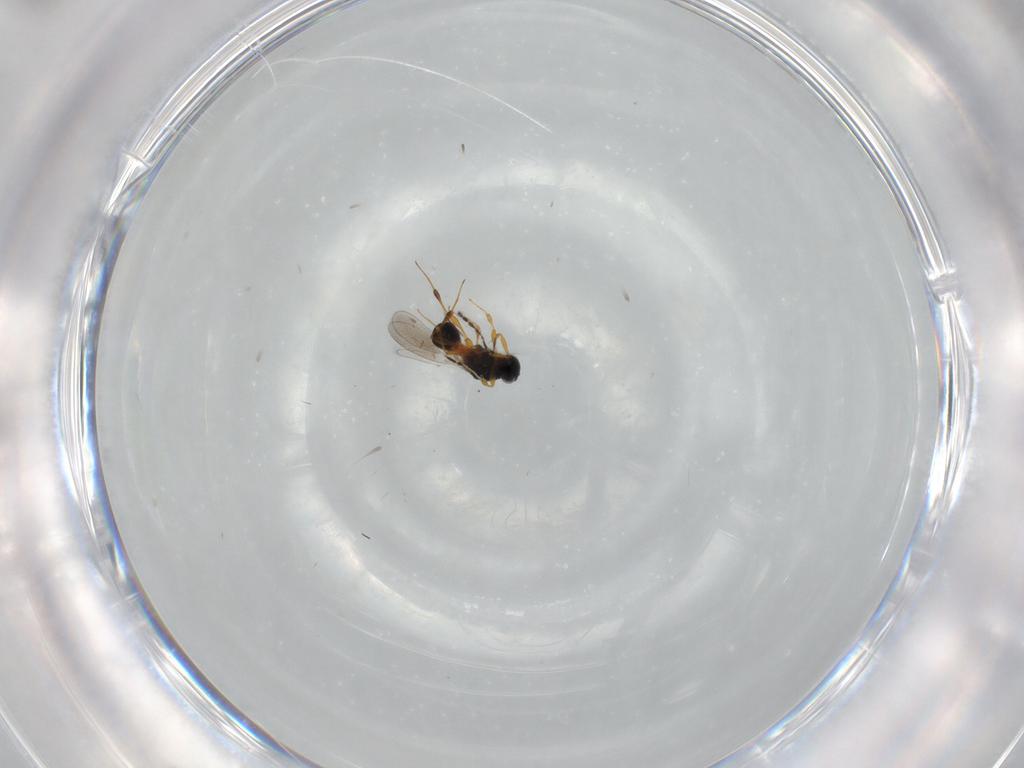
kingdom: Animalia
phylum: Arthropoda
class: Insecta
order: Hymenoptera
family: Platygastridae
